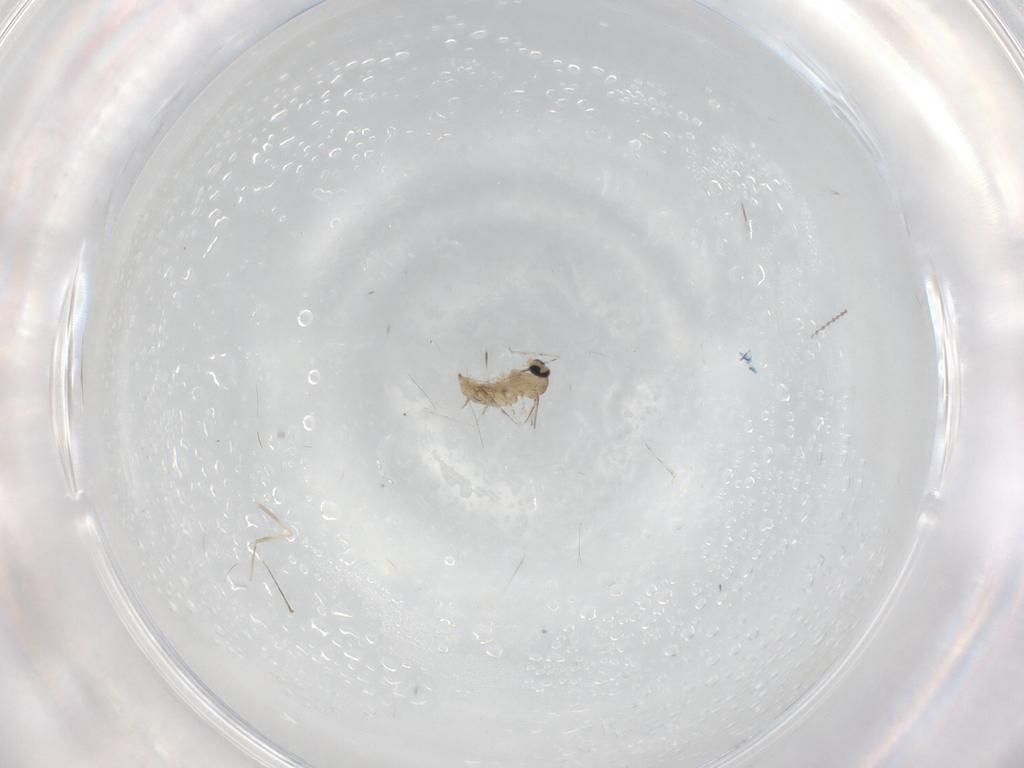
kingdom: Animalia
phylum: Arthropoda
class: Insecta
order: Diptera
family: Cecidomyiidae
